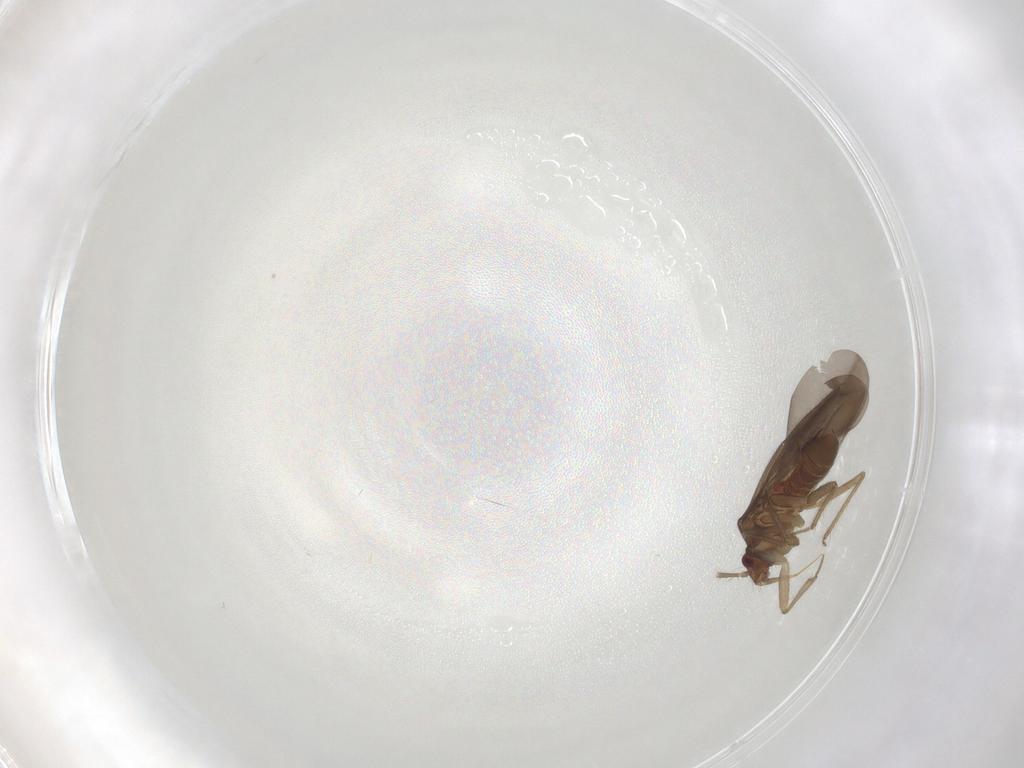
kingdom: Animalia
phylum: Arthropoda
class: Insecta
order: Hemiptera
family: Ceratocombidae
